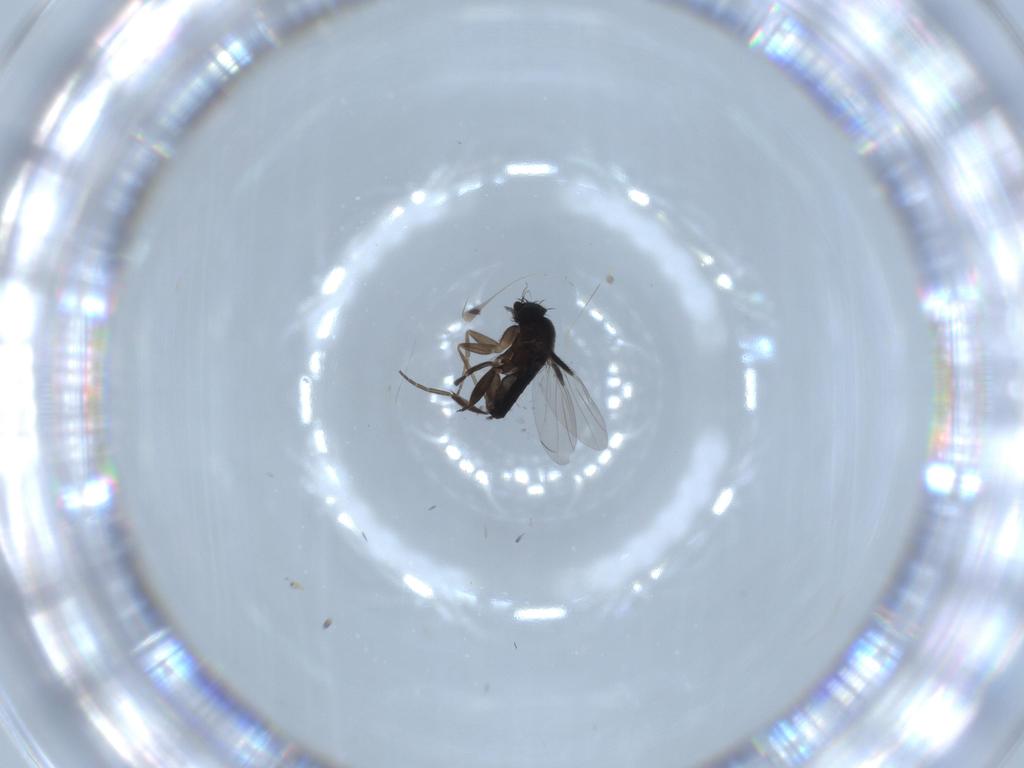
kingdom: Animalia
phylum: Arthropoda
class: Insecta
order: Diptera
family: Phoridae
